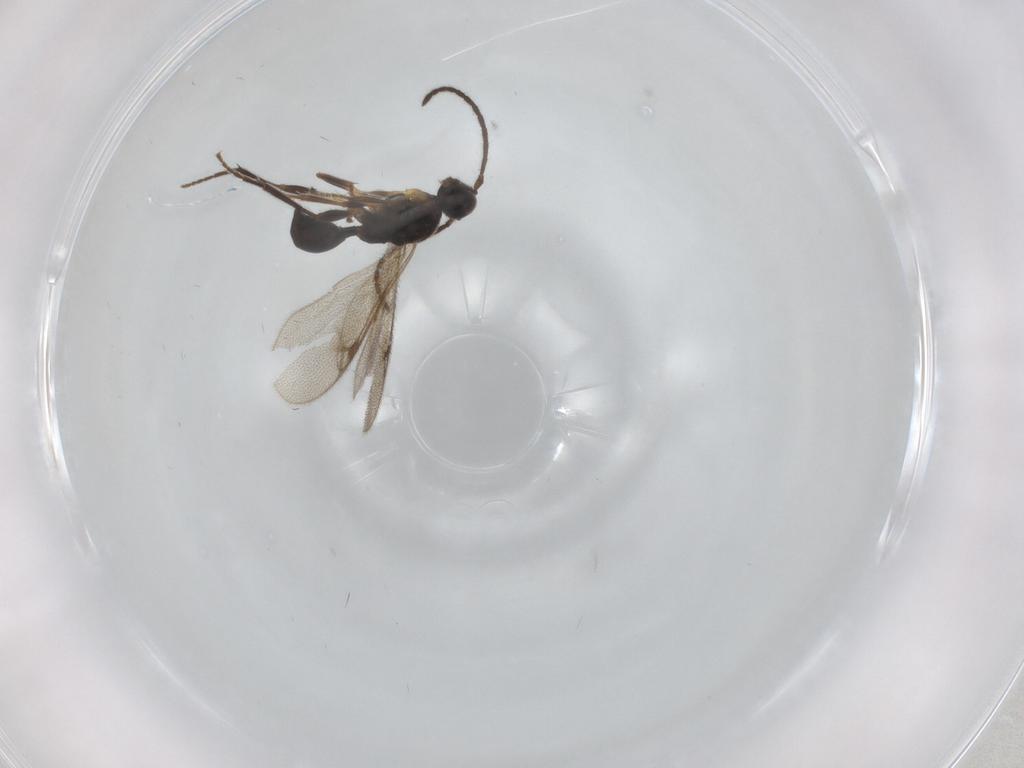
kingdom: Animalia
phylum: Arthropoda
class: Insecta
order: Hymenoptera
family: Proctotrupidae
